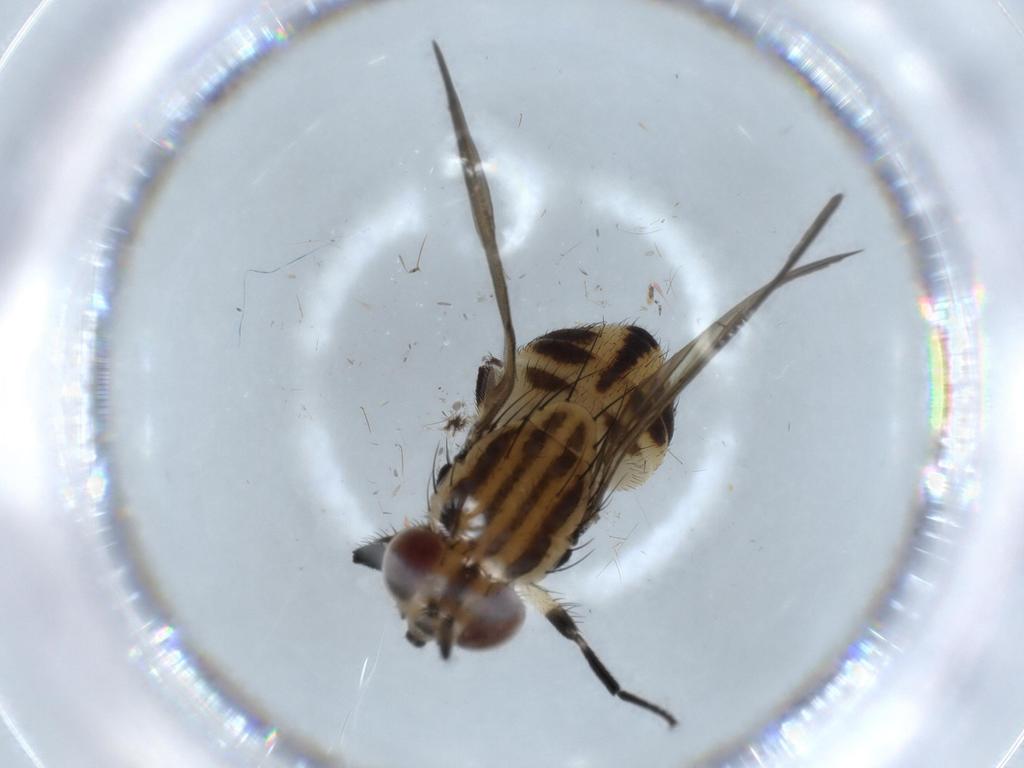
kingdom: Animalia
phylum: Arthropoda
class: Insecta
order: Diptera
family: Lauxaniidae
